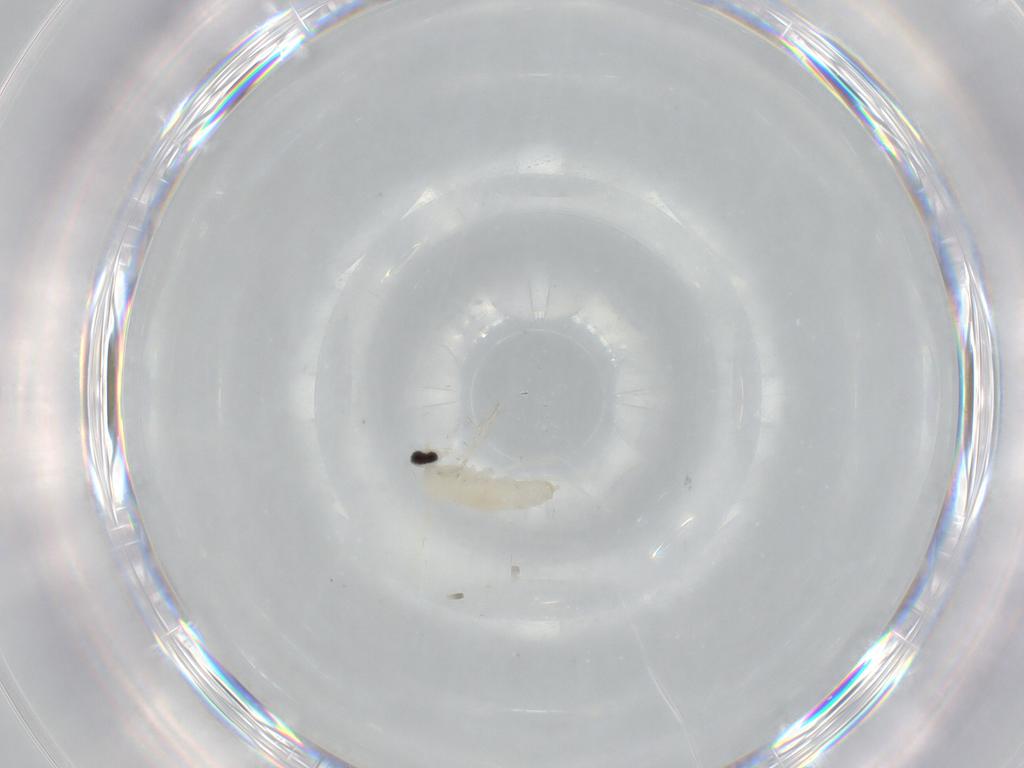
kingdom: Animalia
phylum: Arthropoda
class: Insecta
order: Diptera
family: Cecidomyiidae
